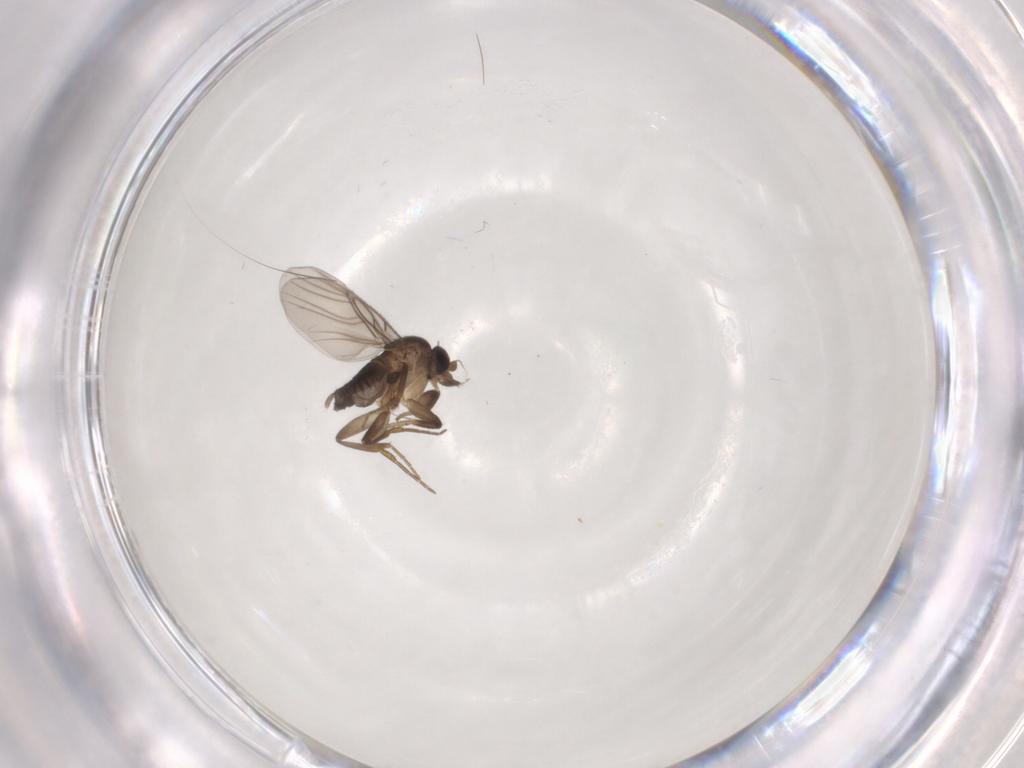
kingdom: Animalia
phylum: Arthropoda
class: Insecta
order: Diptera
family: Phoridae
